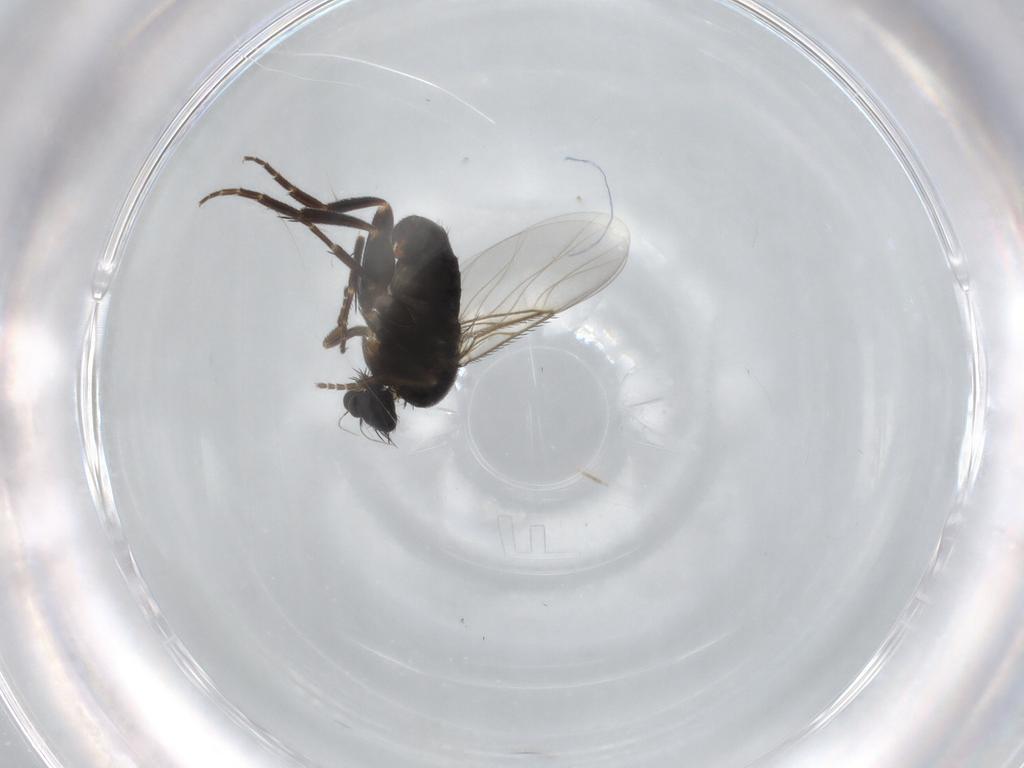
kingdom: Animalia
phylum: Arthropoda
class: Insecta
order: Diptera
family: Phoridae
